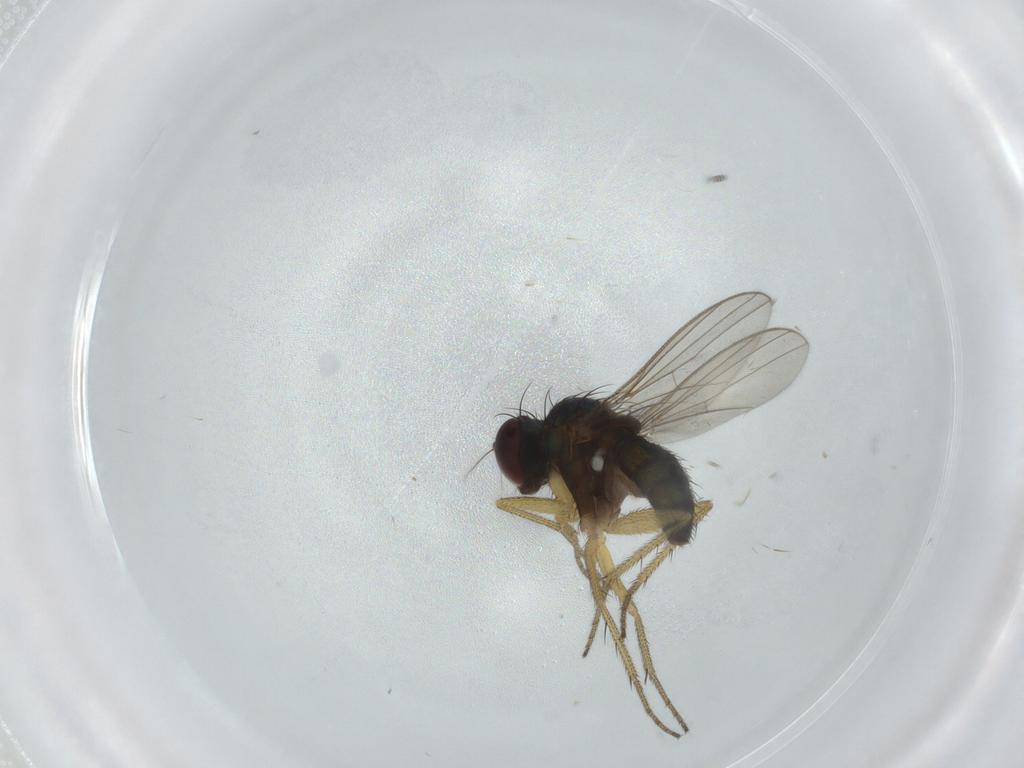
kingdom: Animalia
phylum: Arthropoda
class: Insecta
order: Diptera
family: Dolichopodidae
